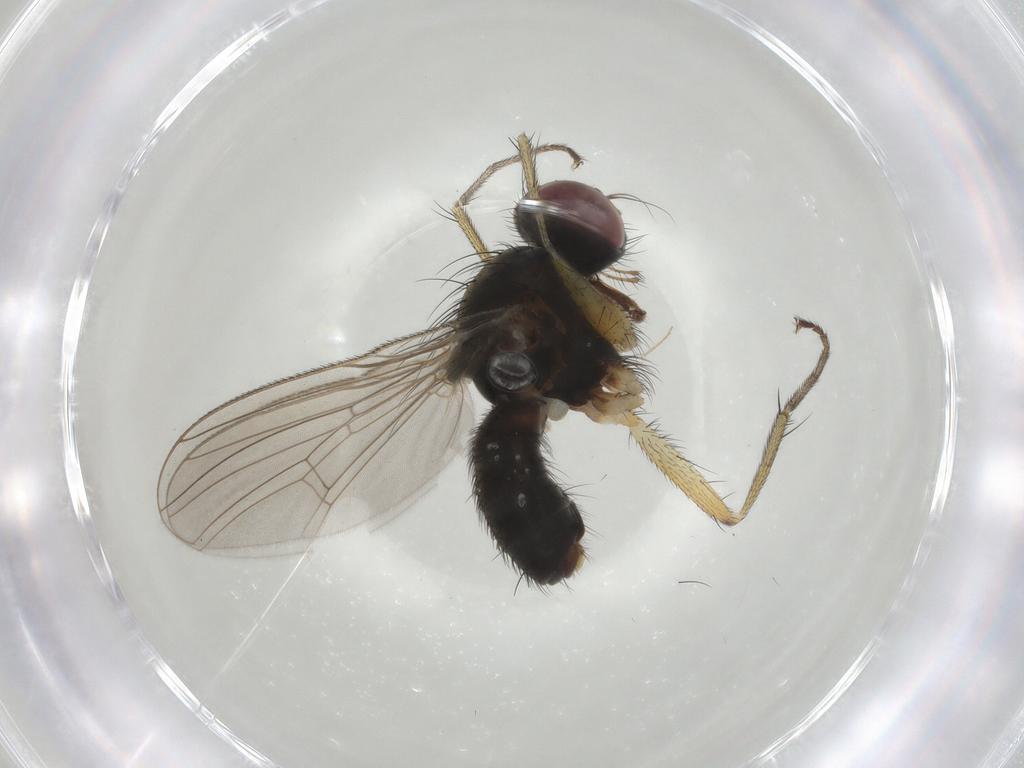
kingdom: Animalia
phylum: Arthropoda
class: Insecta
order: Diptera
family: Muscidae
